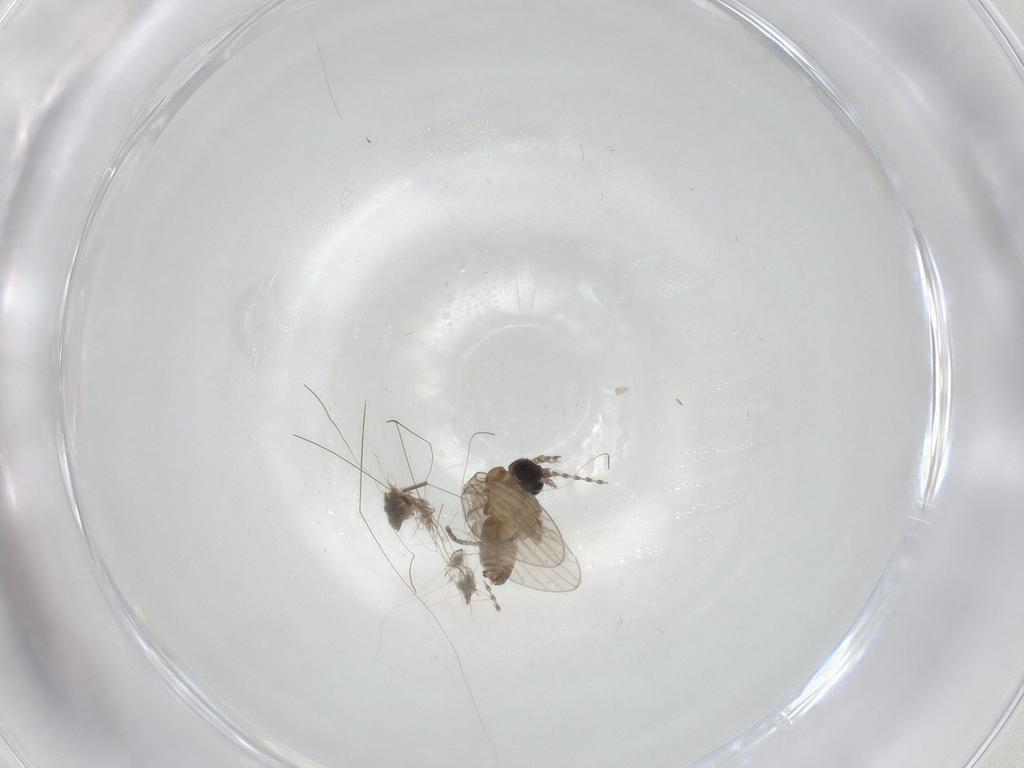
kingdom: Animalia
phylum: Arthropoda
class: Insecta
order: Diptera
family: Psychodidae
